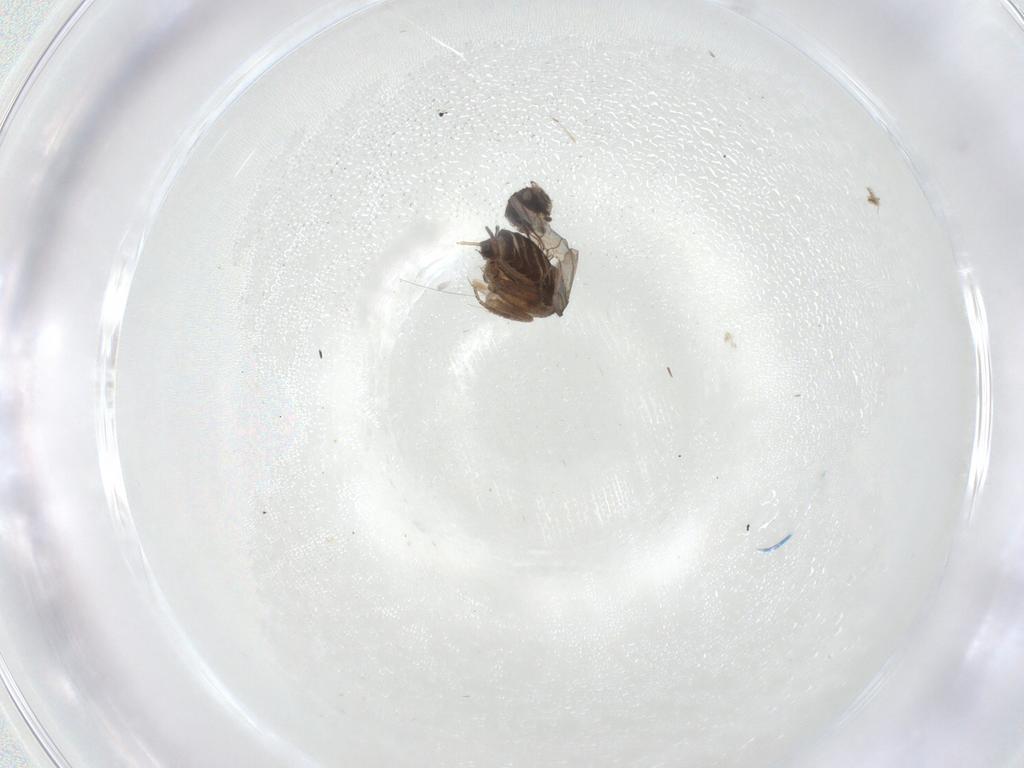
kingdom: Animalia
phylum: Arthropoda
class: Insecta
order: Diptera
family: Phoridae
